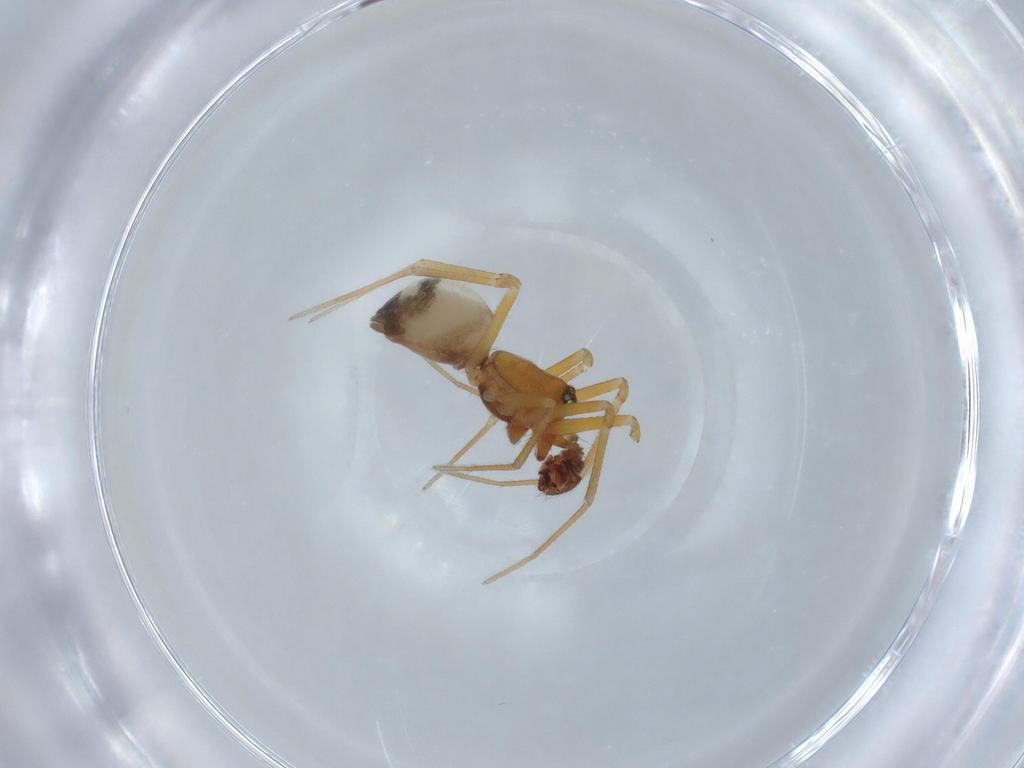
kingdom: Animalia
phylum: Arthropoda
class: Arachnida
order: Araneae
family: Linyphiidae
